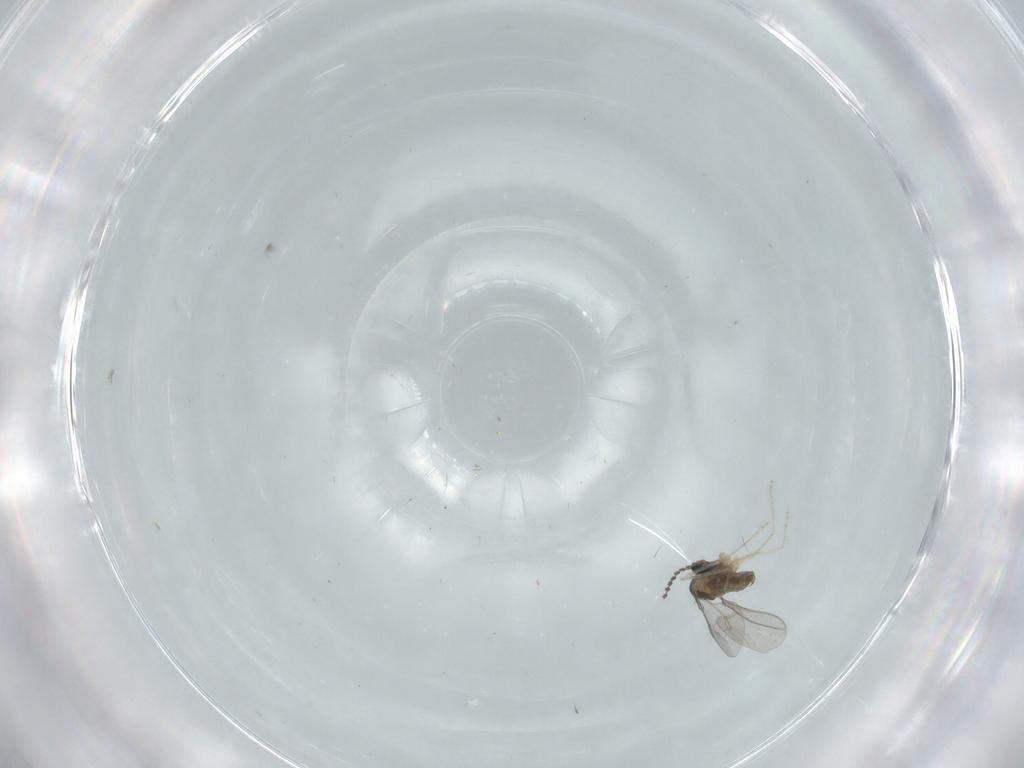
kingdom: Animalia
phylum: Arthropoda
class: Insecta
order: Diptera
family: Cecidomyiidae
